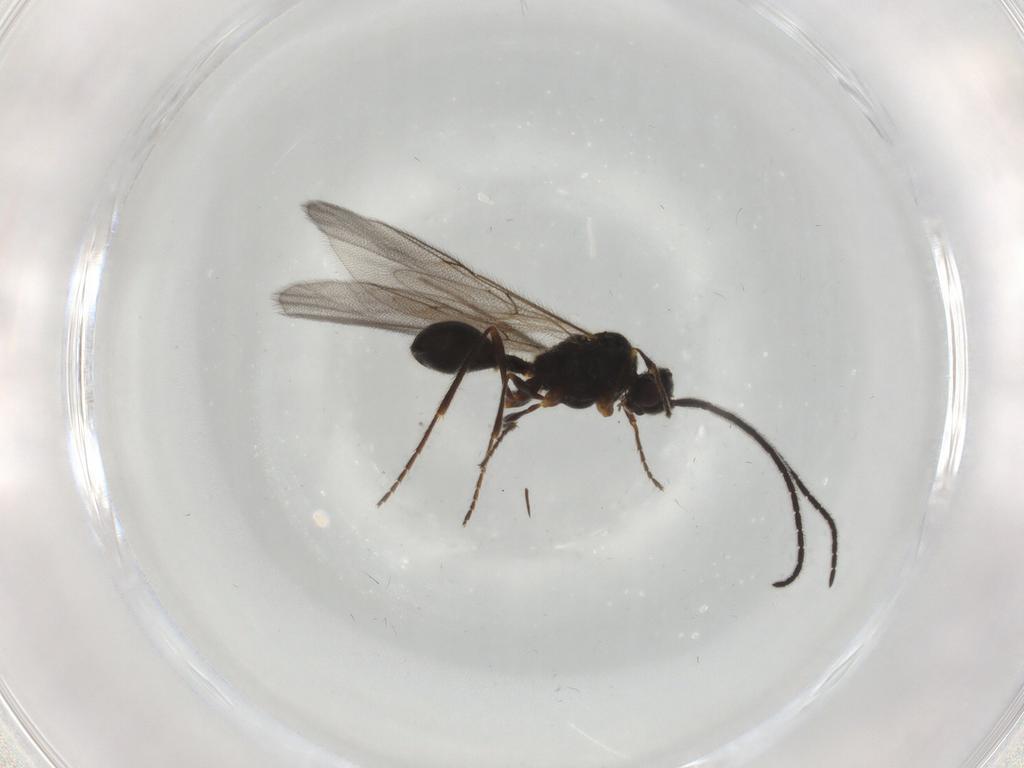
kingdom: Animalia
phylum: Arthropoda
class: Insecta
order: Hymenoptera
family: Diapriidae
